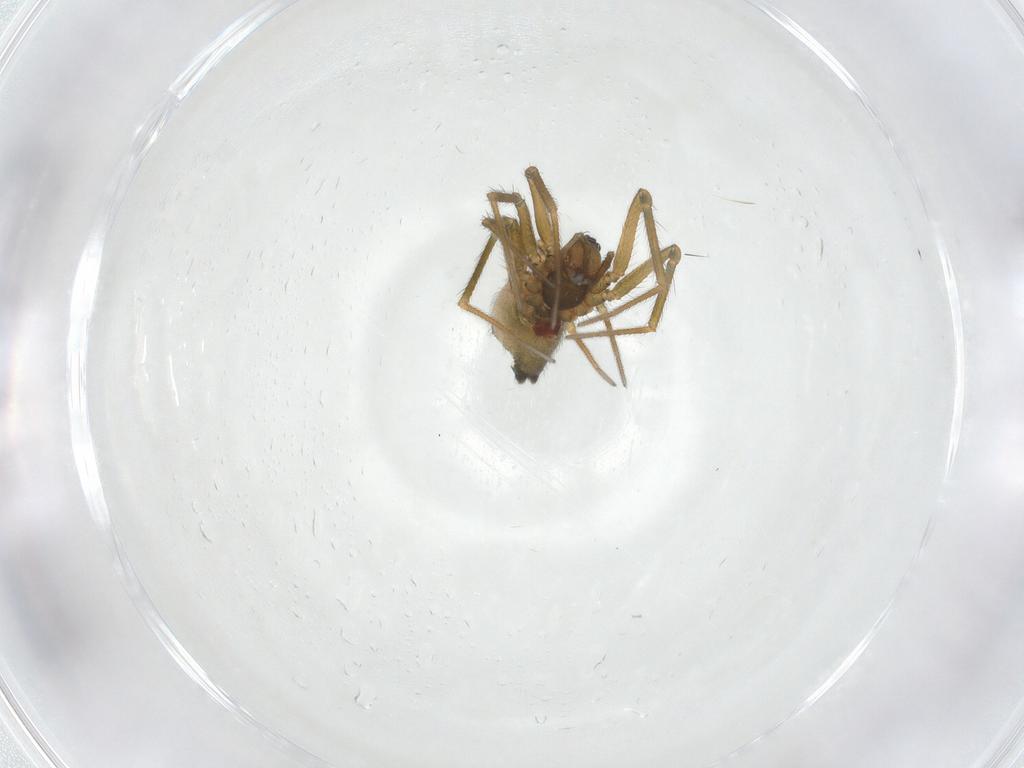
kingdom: Animalia
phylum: Arthropoda
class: Arachnida
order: Araneae
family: Linyphiidae
